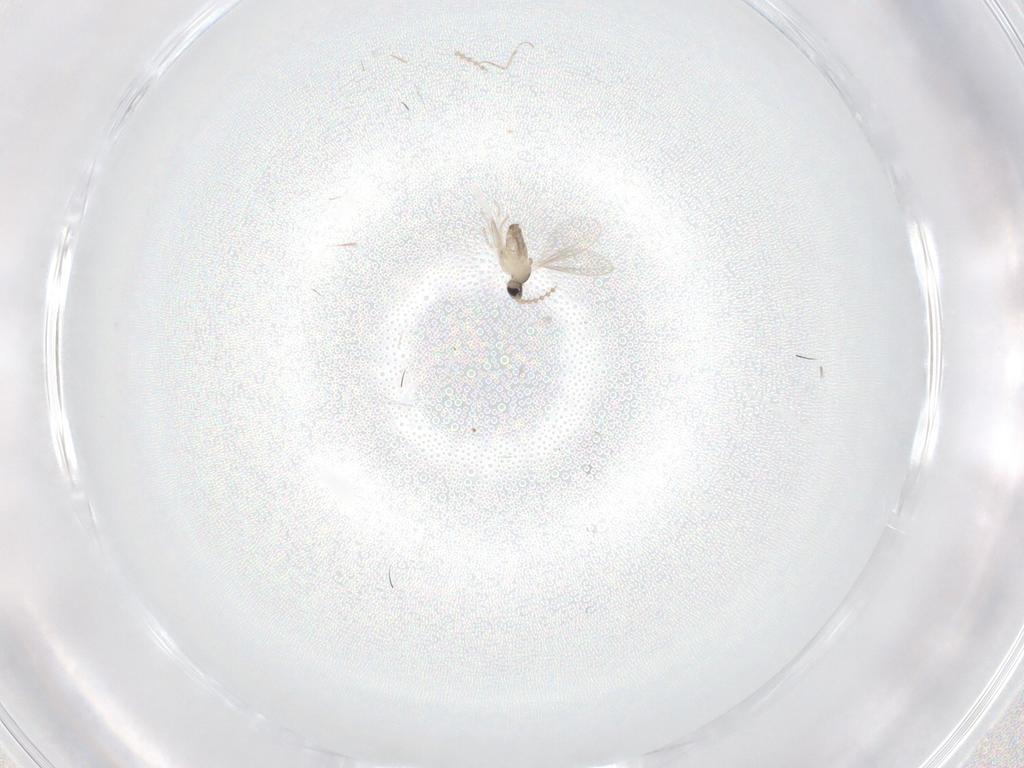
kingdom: Animalia
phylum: Arthropoda
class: Insecta
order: Diptera
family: Cecidomyiidae
